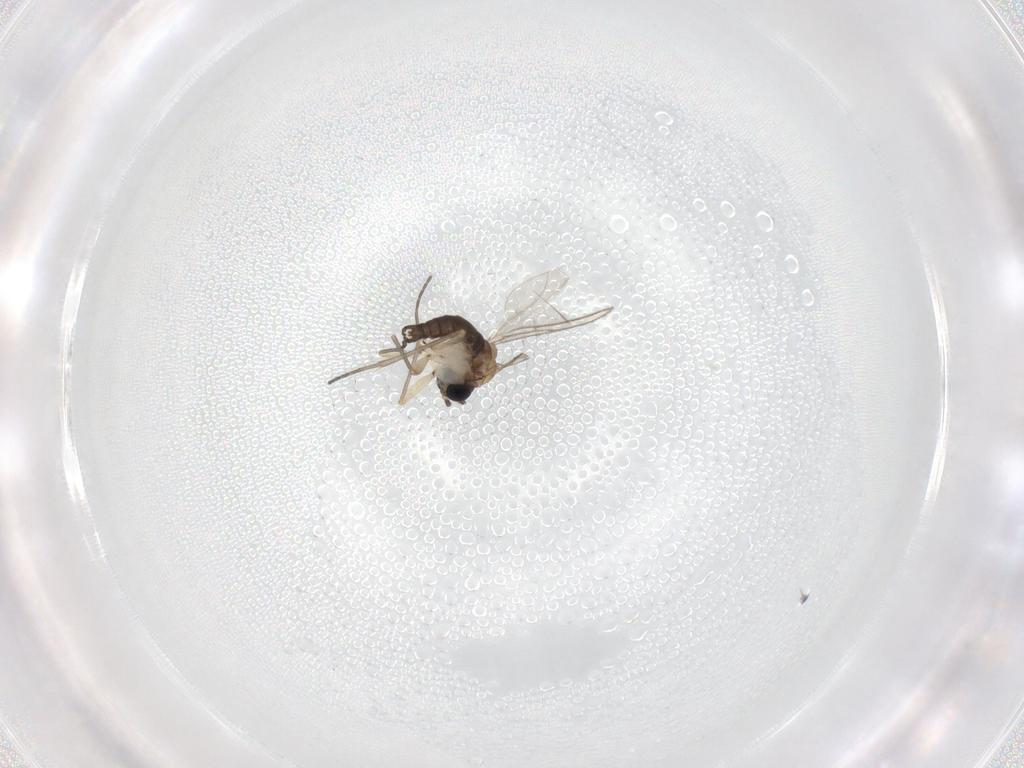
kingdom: Animalia
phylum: Arthropoda
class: Insecta
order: Diptera
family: Sciaridae
